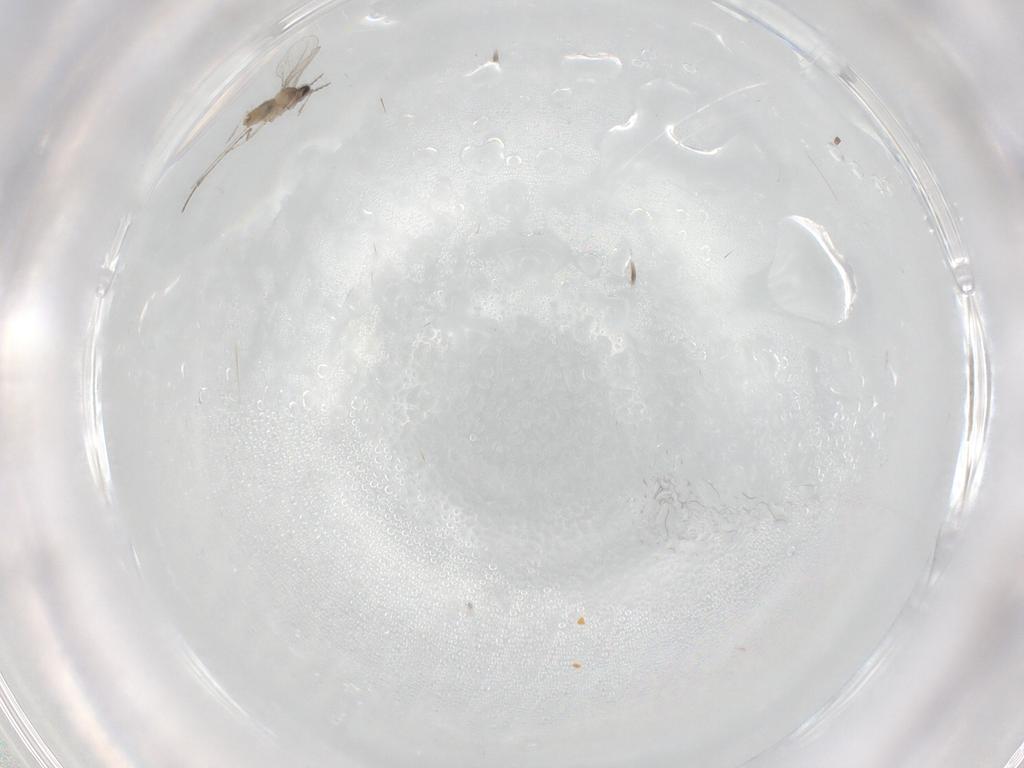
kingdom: Animalia
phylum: Arthropoda
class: Insecta
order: Diptera
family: Cecidomyiidae
